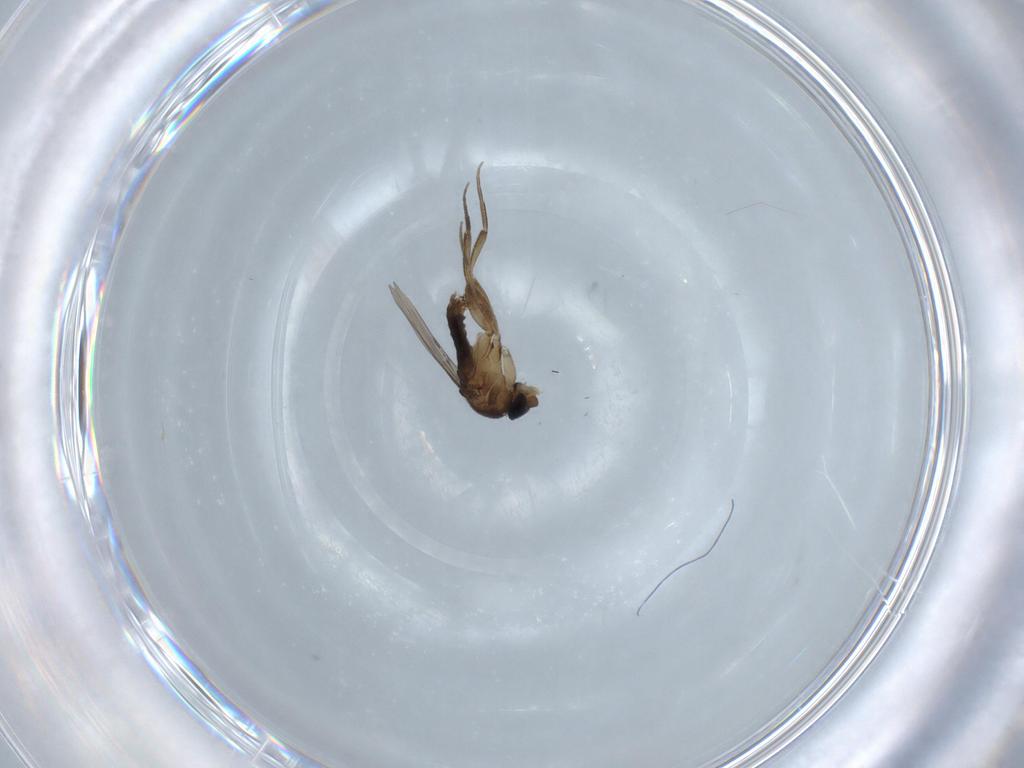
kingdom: Animalia
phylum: Arthropoda
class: Insecta
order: Diptera
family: Phoridae
